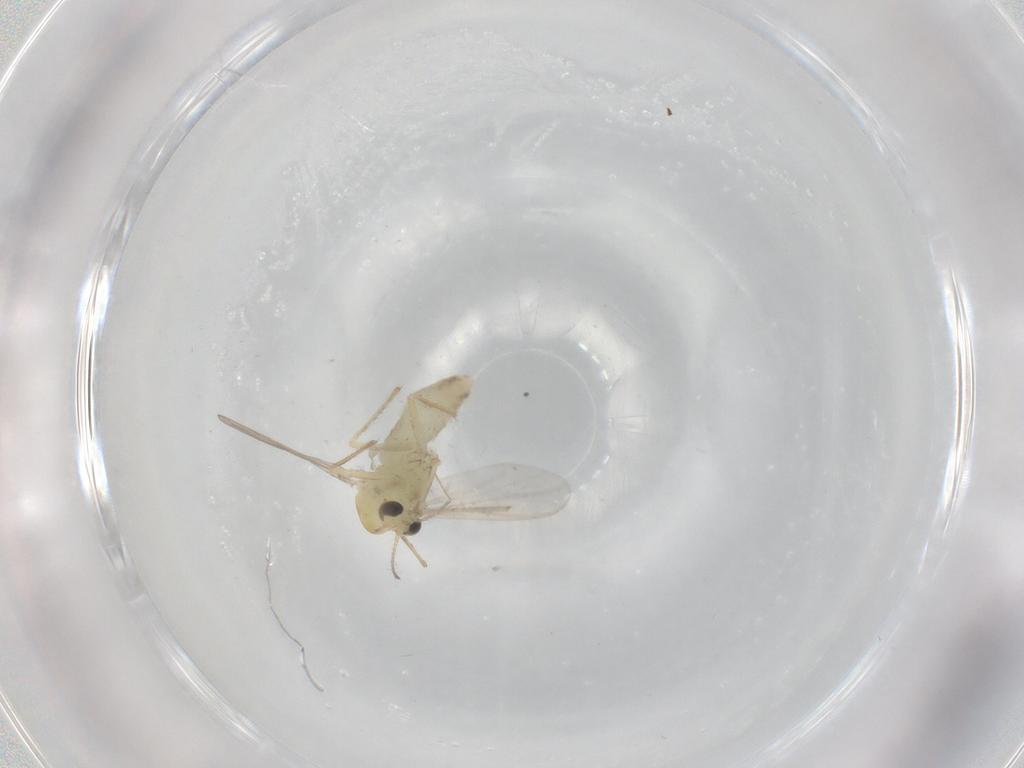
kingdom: Animalia
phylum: Arthropoda
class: Insecta
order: Diptera
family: Chironomidae
